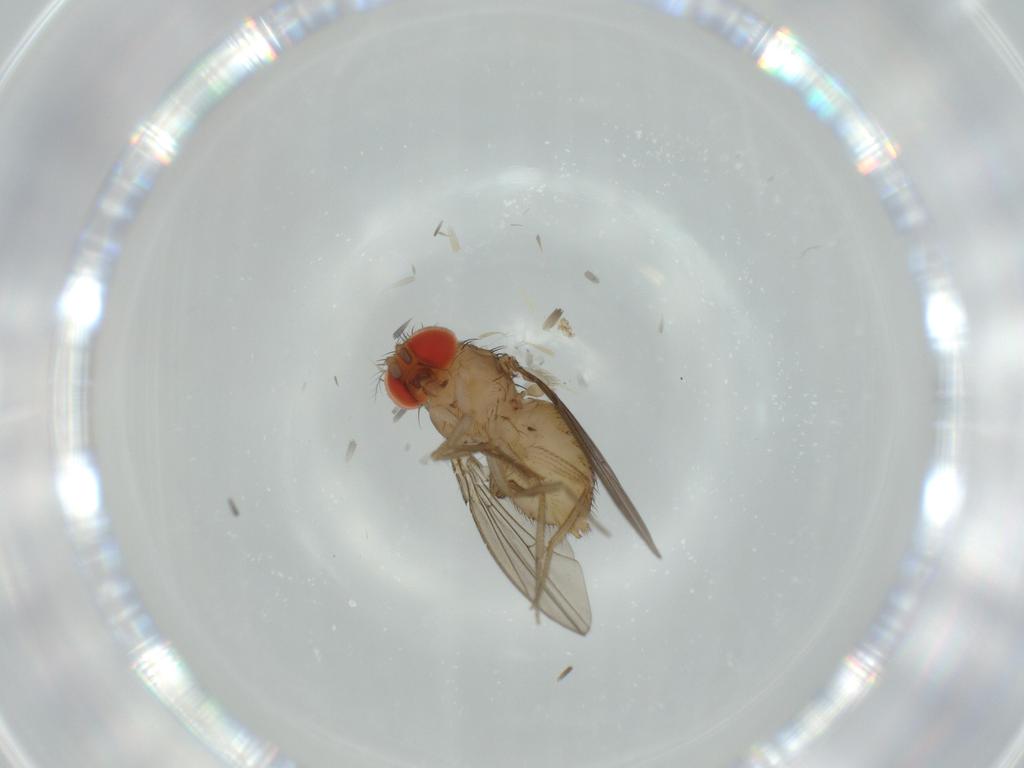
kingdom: Animalia
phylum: Arthropoda
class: Insecta
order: Diptera
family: Drosophilidae
